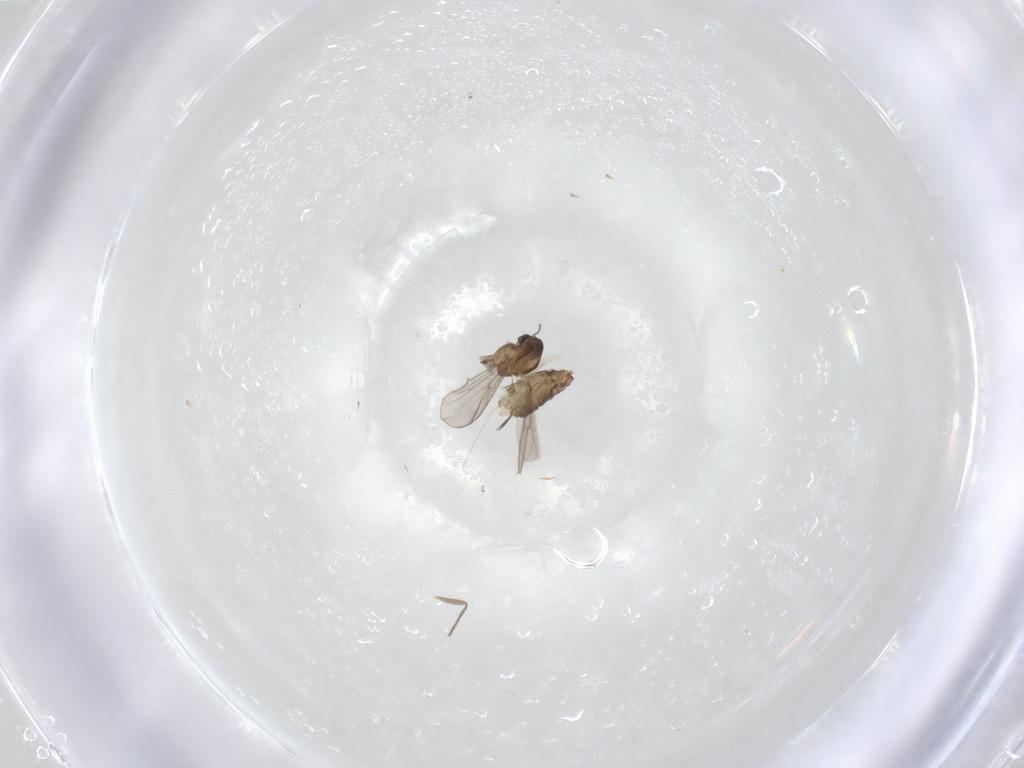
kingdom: Animalia
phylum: Arthropoda
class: Insecta
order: Diptera
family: Chironomidae
